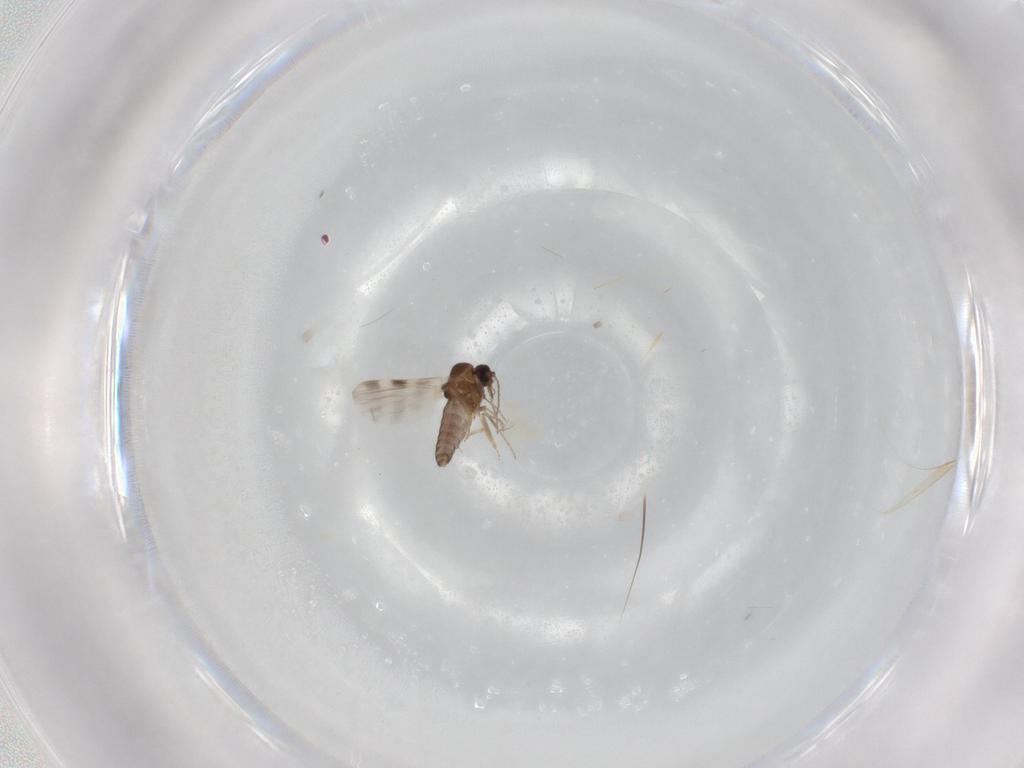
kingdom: Animalia
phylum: Arthropoda
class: Insecta
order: Diptera
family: Ceratopogonidae
